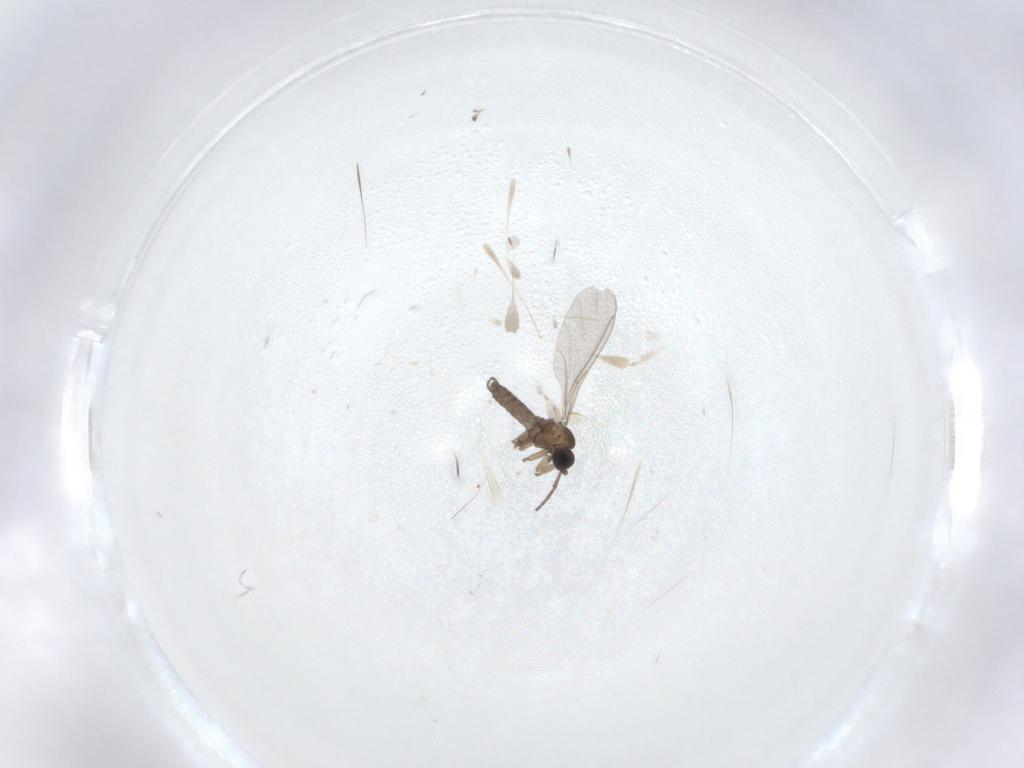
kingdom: Animalia
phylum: Arthropoda
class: Insecta
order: Diptera
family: Sciaridae
